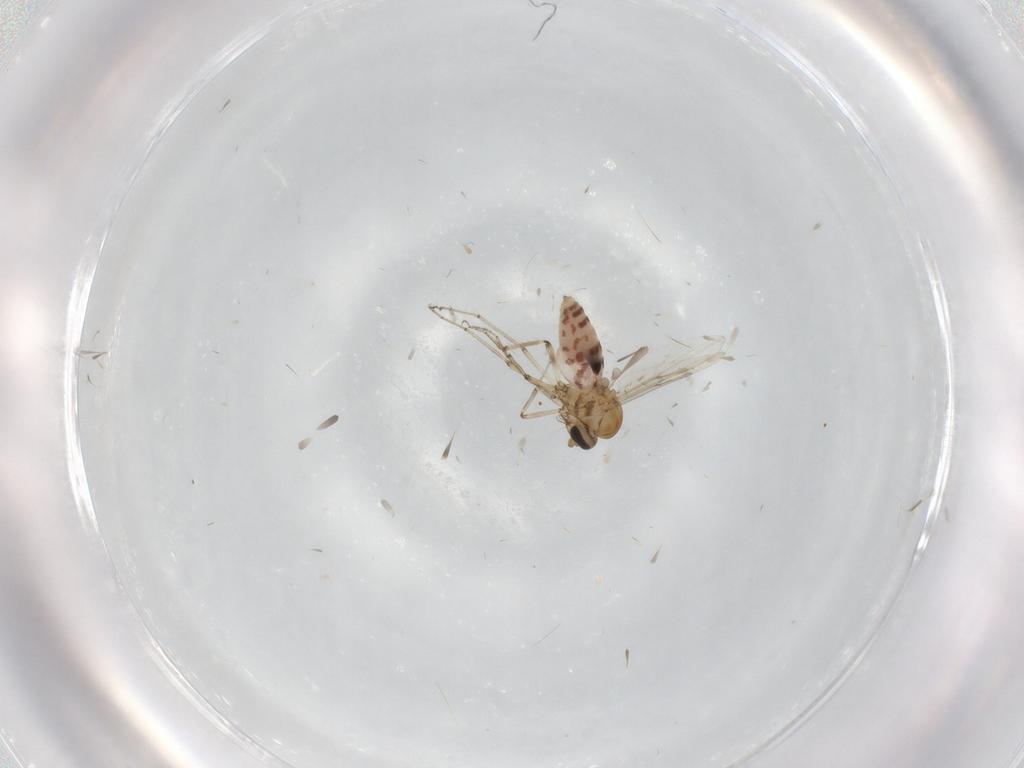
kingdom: Animalia
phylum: Arthropoda
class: Insecta
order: Diptera
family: Ceratopogonidae
